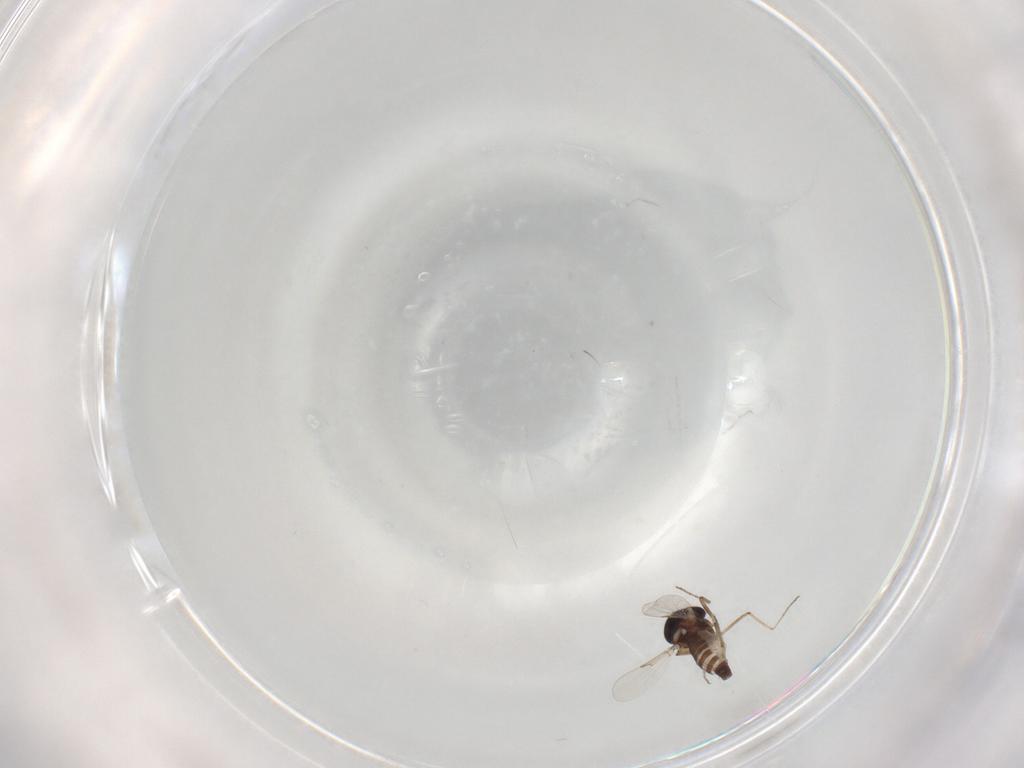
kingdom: Animalia
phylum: Arthropoda
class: Insecta
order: Diptera
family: Ceratopogonidae
